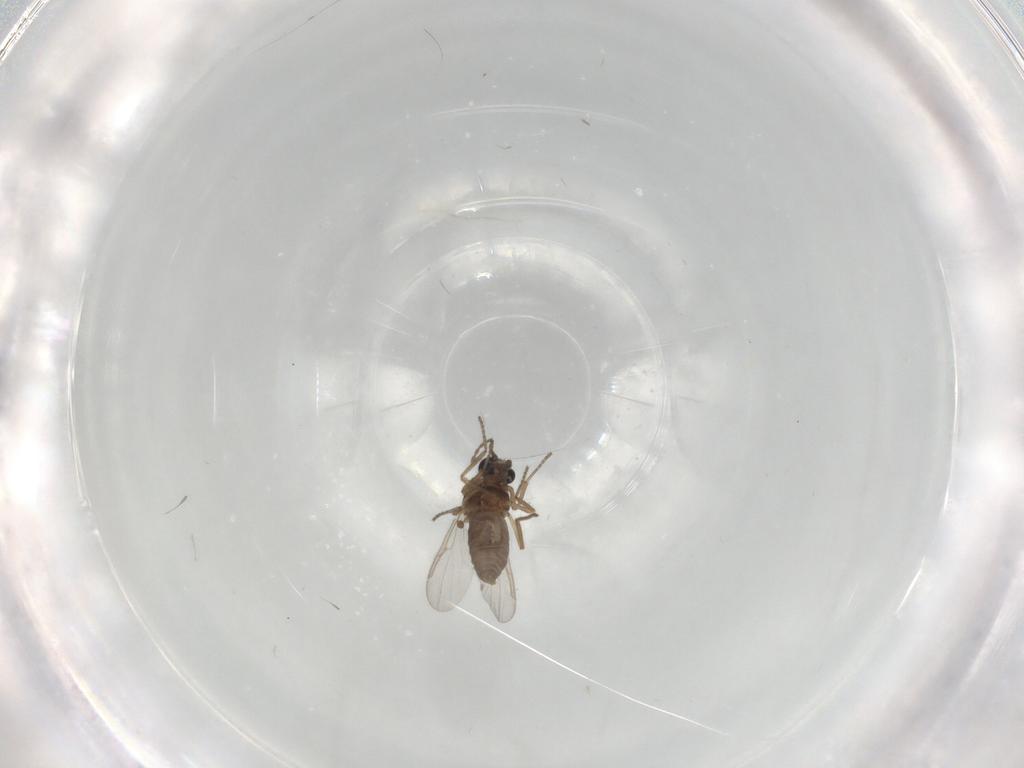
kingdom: Animalia
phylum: Arthropoda
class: Insecta
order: Diptera
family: Ceratopogonidae
